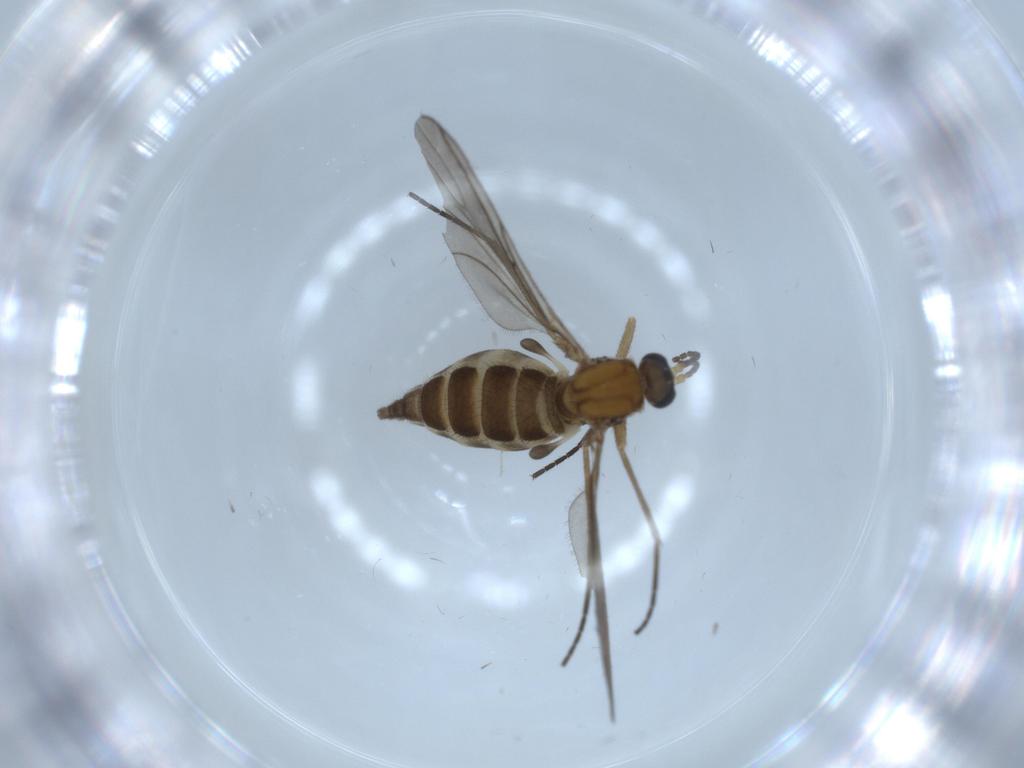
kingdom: Animalia
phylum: Arthropoda
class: Insecta
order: Diptera
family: Sciaridae
